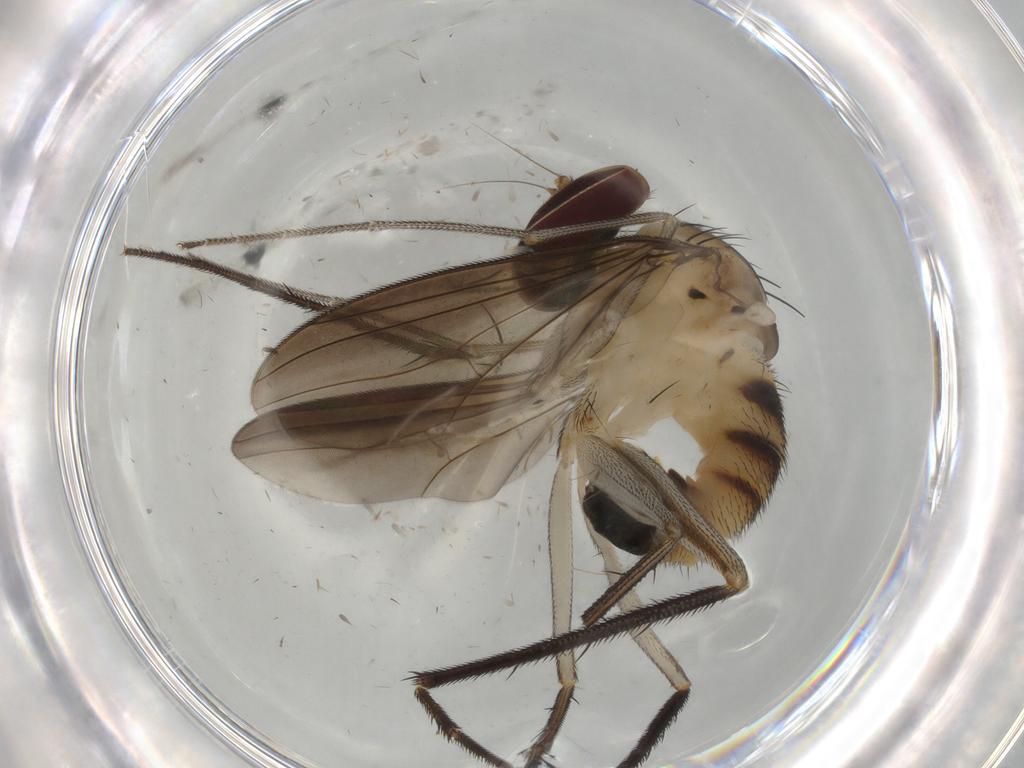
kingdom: Animalia
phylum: Arthropoda
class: Insecta
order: Diptera
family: Dolichopodidae
